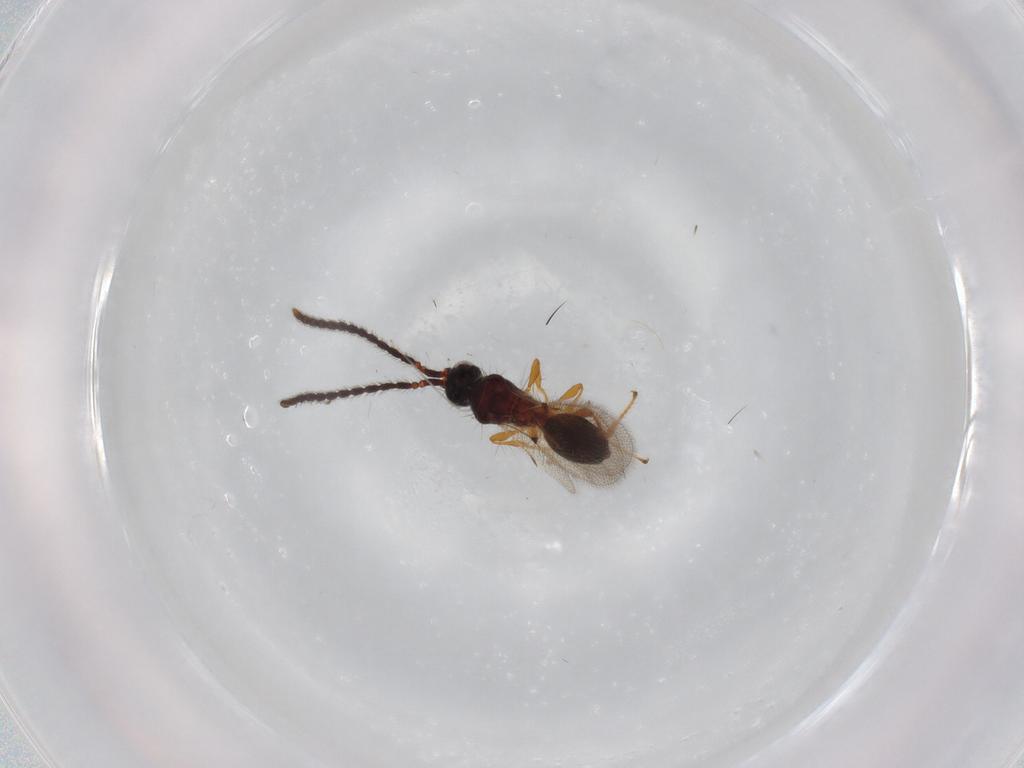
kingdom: Animalia
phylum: Arthropoda
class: Insecta
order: Hymenoptera
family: Diapriidae
